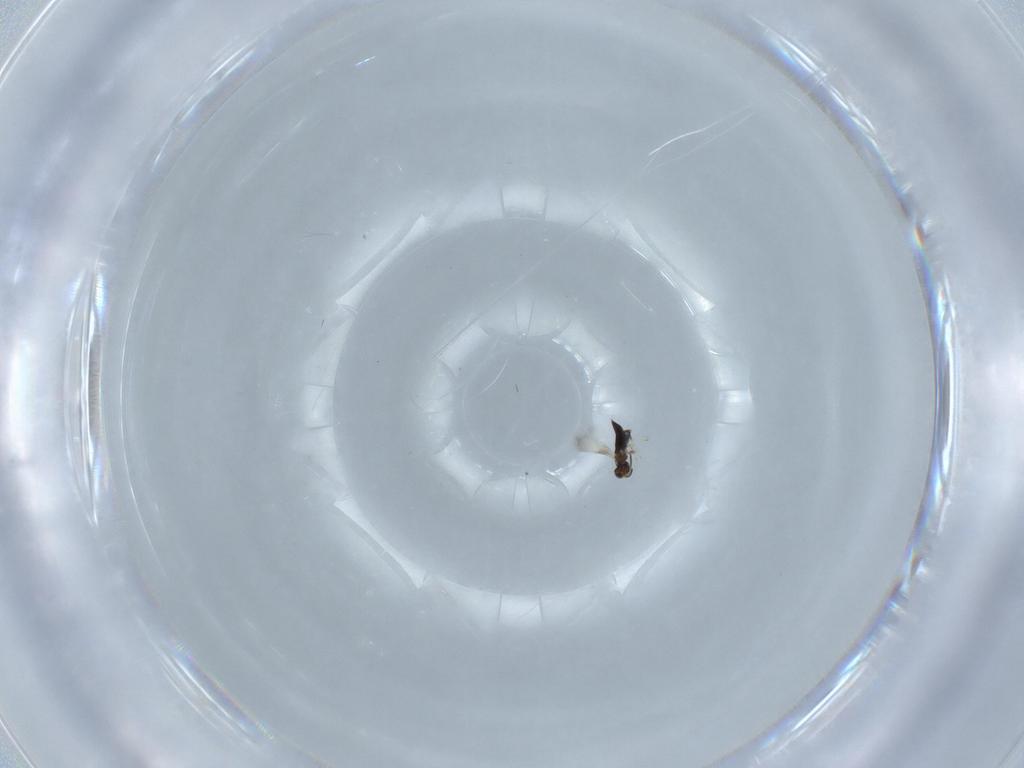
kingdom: Animalia
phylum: Arthropoda
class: Insecta
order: Hymenoptera
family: Signiphoridae
